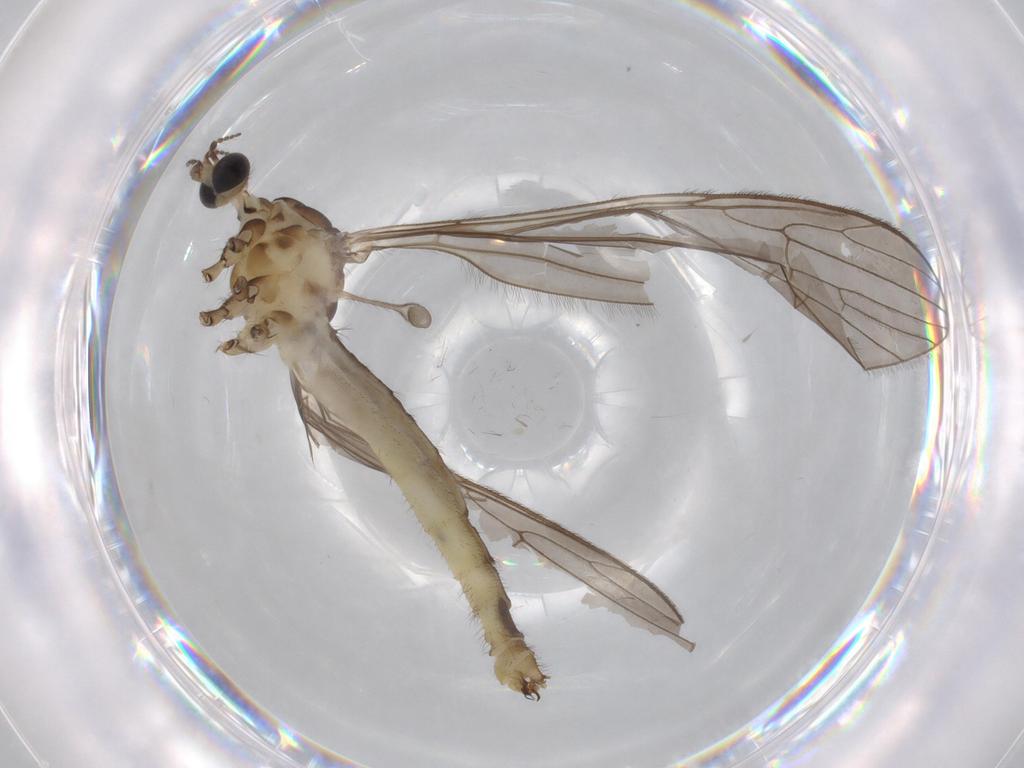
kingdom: Animalia
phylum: Arthropoda
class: Insecta
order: Diptera
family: Sciaridae
